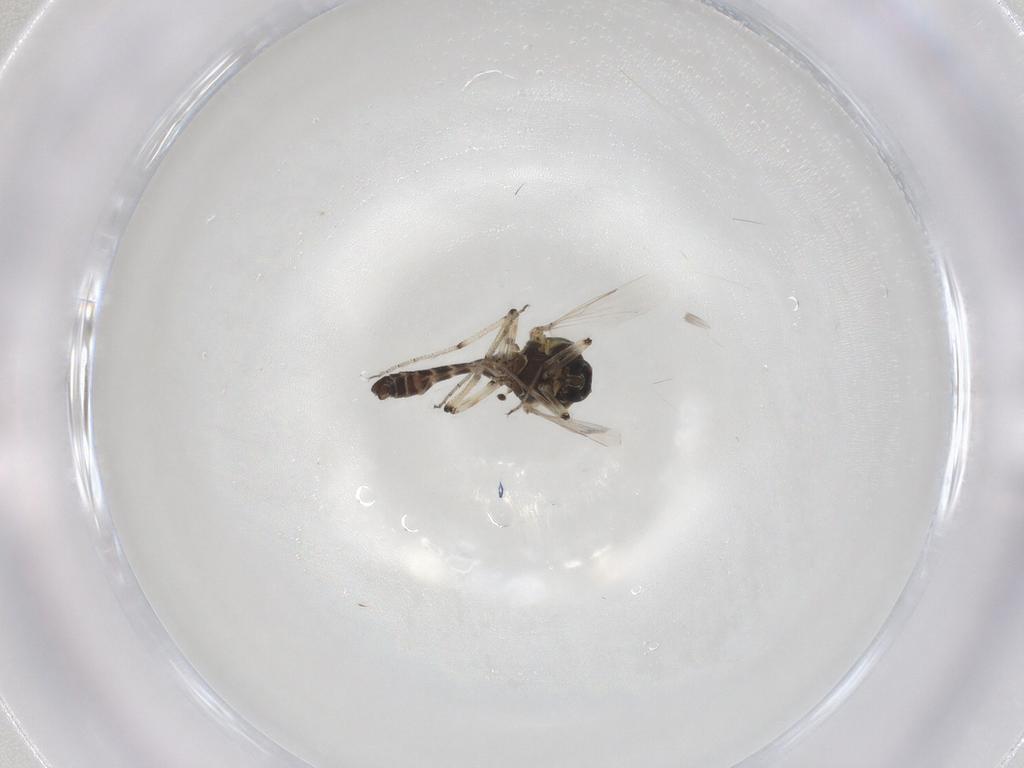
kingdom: Animalia
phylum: Arthropoda
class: Insecta
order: Diptera
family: Ceratopogonidae
